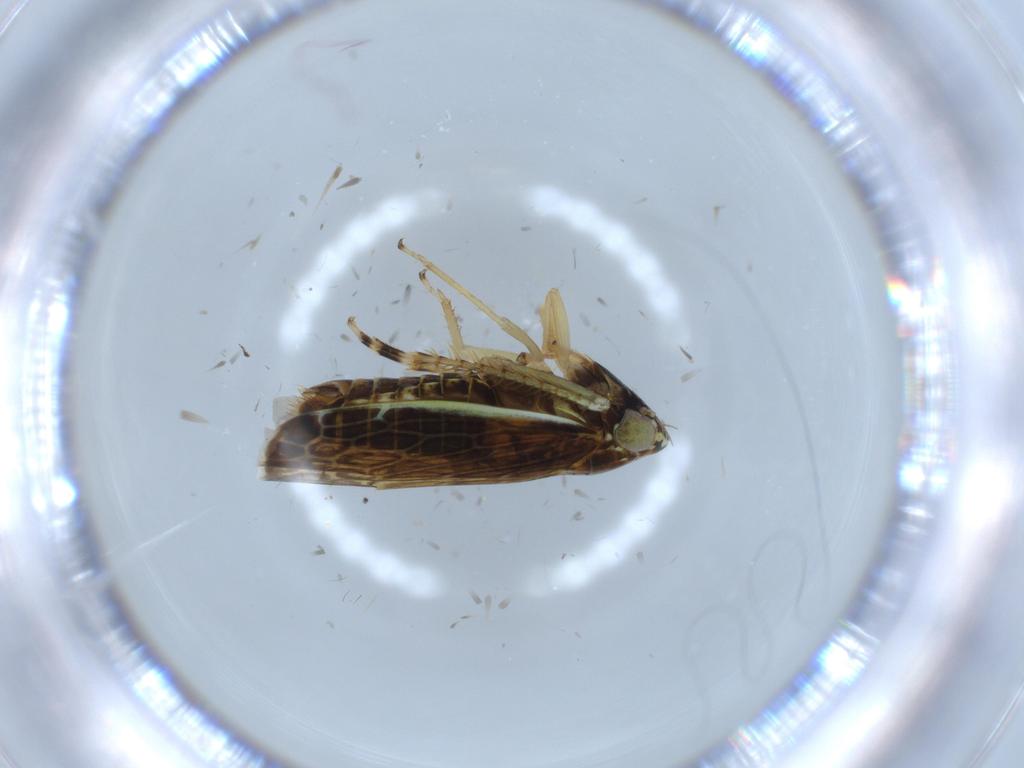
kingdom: Animalia
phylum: Arthropoda
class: Insecta
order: Hemiptera
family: Cicadellidae
